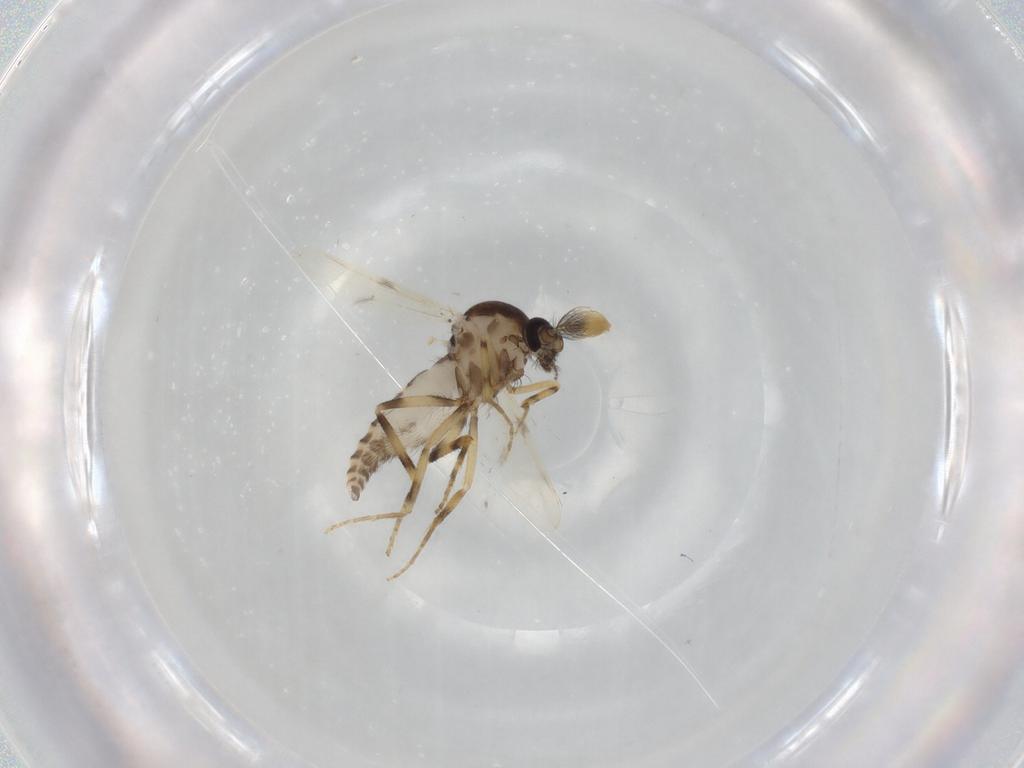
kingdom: Animalia
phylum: Arthropoda
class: Insecta
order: Diptera
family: Ceratopogonidae
